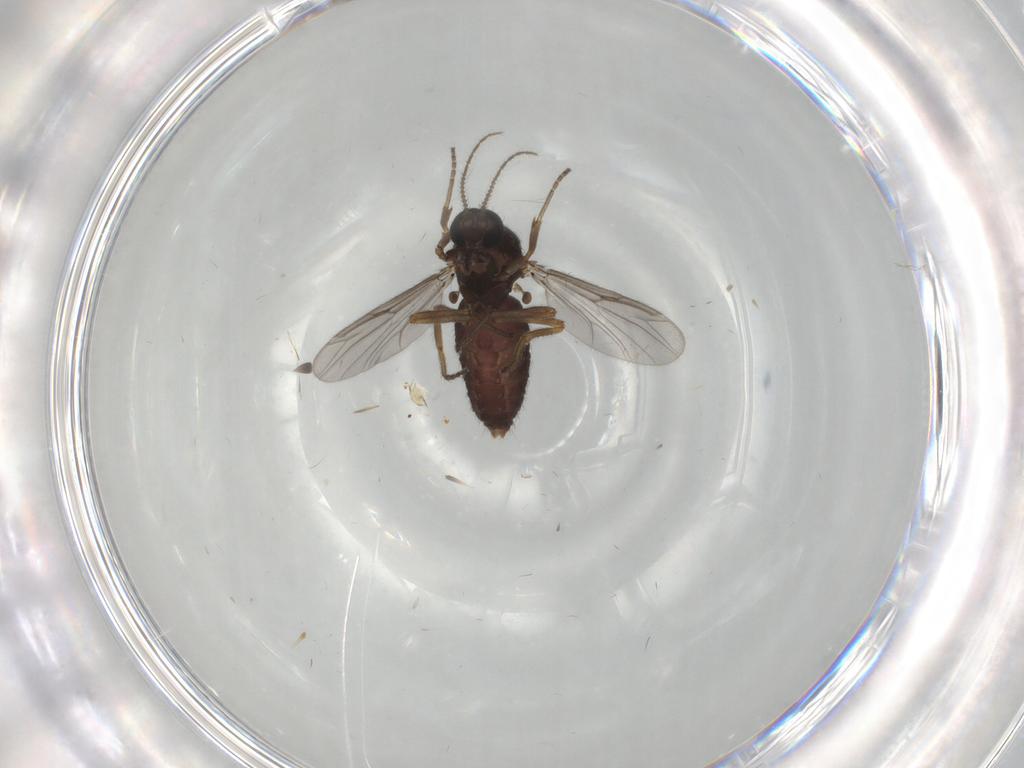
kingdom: Animalia
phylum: Arthropoda
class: Insecta
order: Diptera
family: Ceratopogonidae
